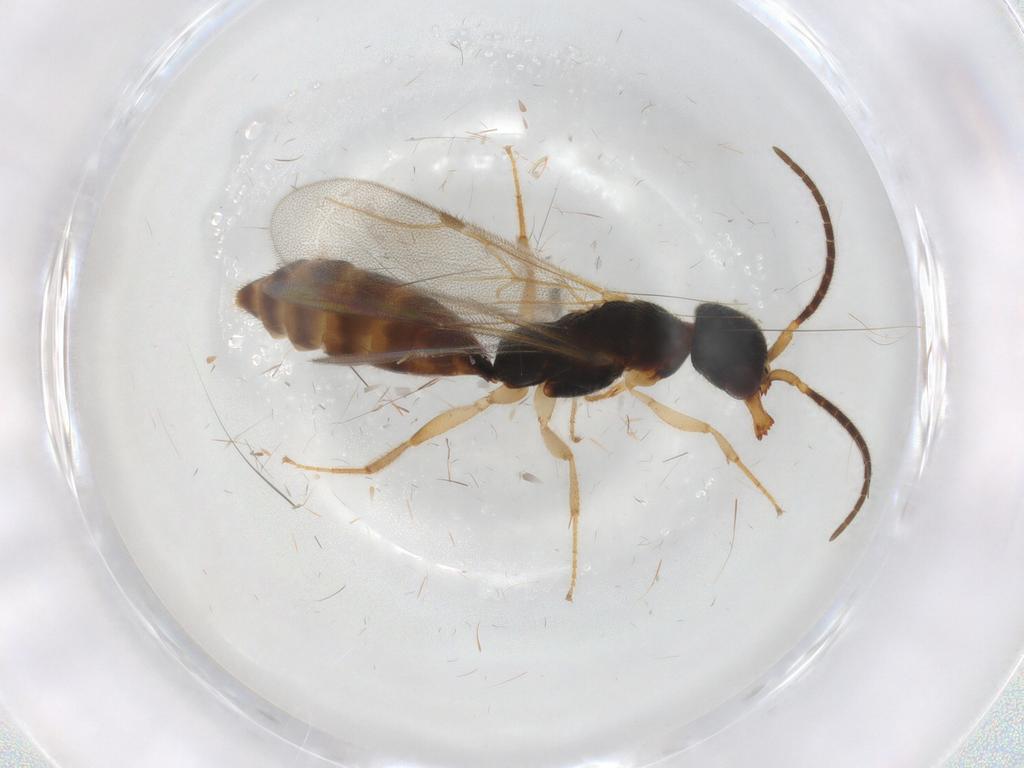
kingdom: Animalia
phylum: Arthropoda
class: Insecta
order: Hymenoptera
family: Bethylidae
